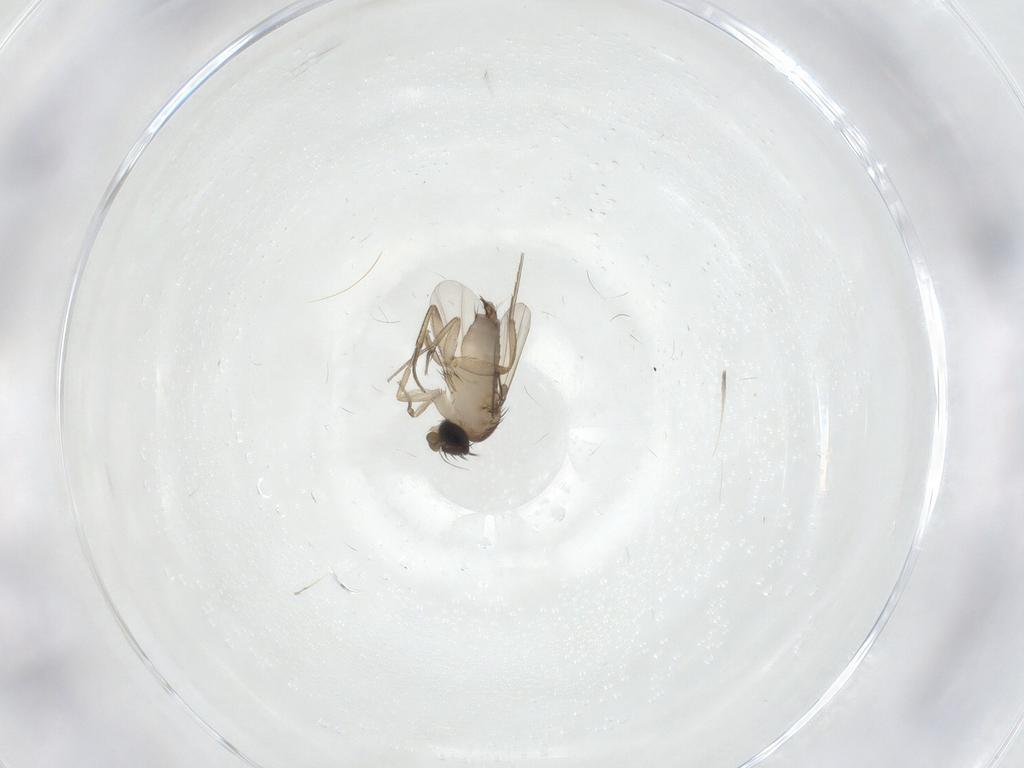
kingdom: Animalia
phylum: Arthropoda
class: Insecta
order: Diptera
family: Phoridae
